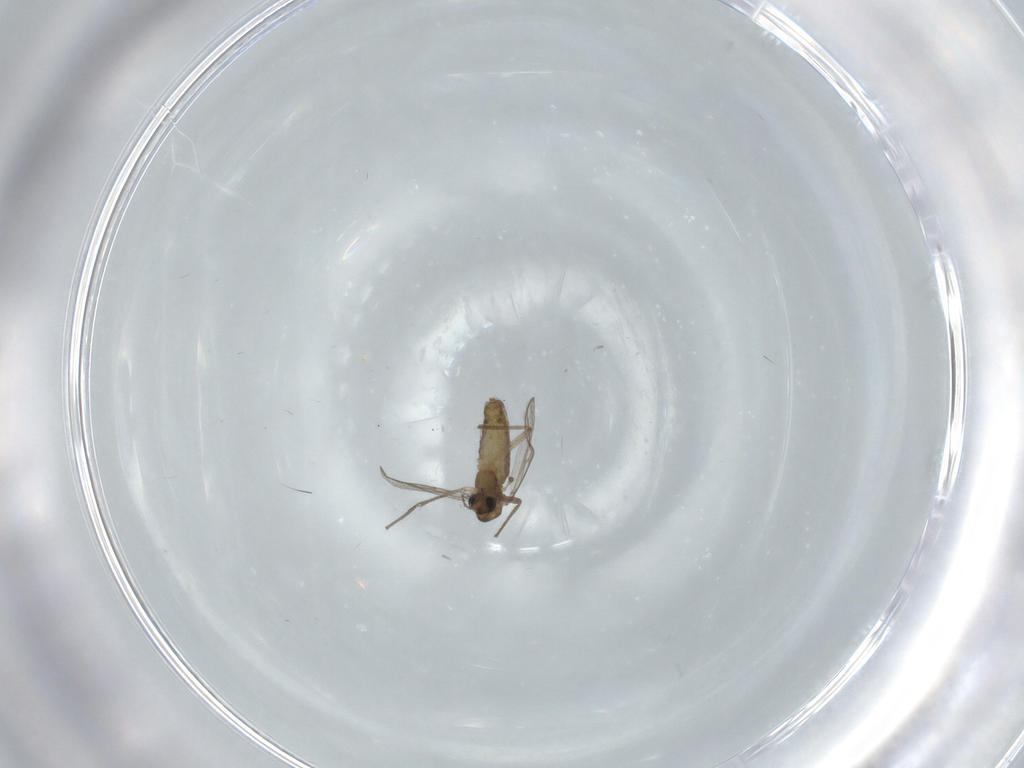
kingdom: Animalia
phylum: Arthropoda
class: Insecta
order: Diptera
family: Chironomidae
